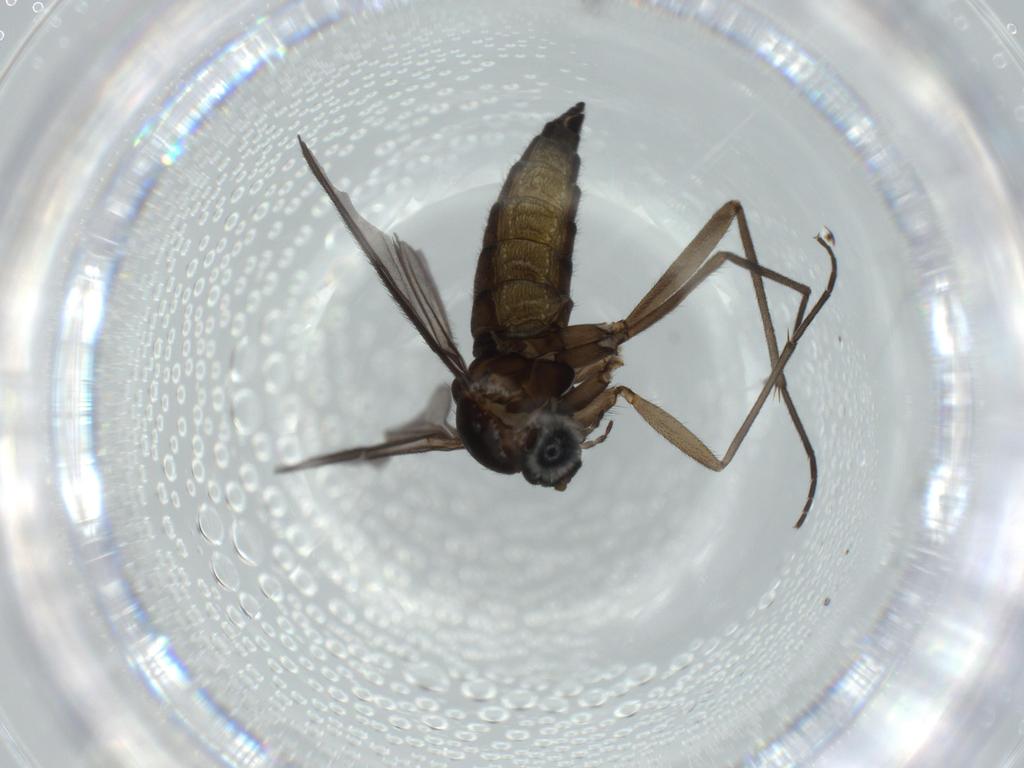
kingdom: Animalia
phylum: Arthropoda
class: Insecta
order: Diptera
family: Sciaridae
